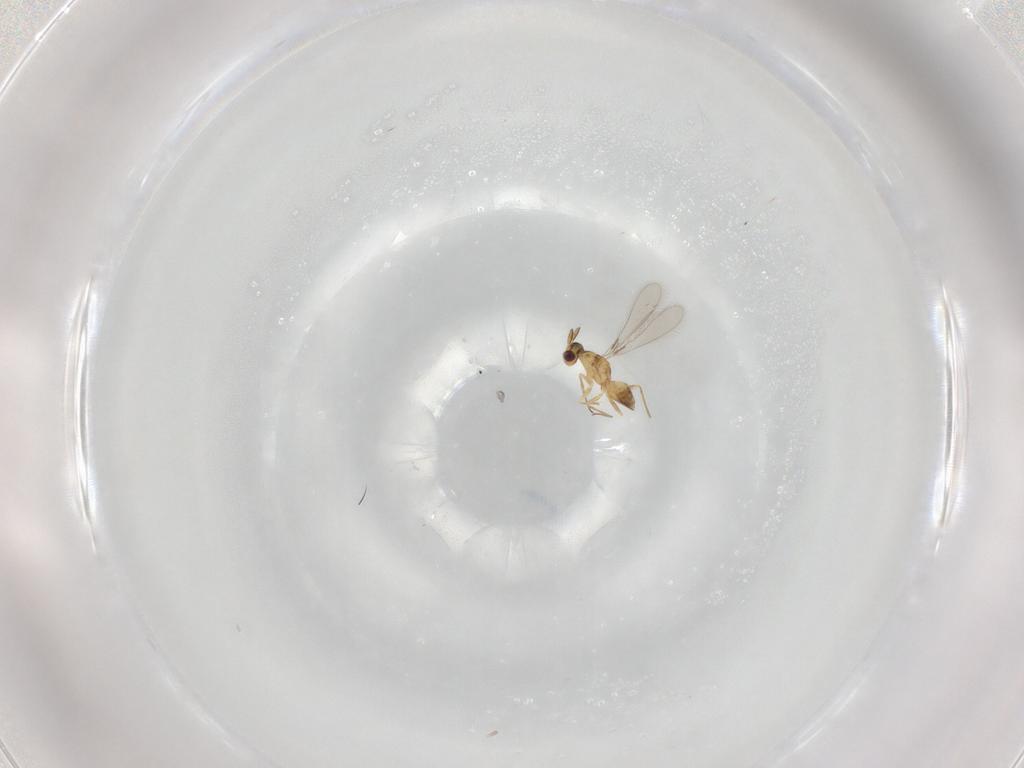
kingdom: Animalia
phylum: Arthropoda
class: Insecta
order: Hymenoptera
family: Mymaridae
